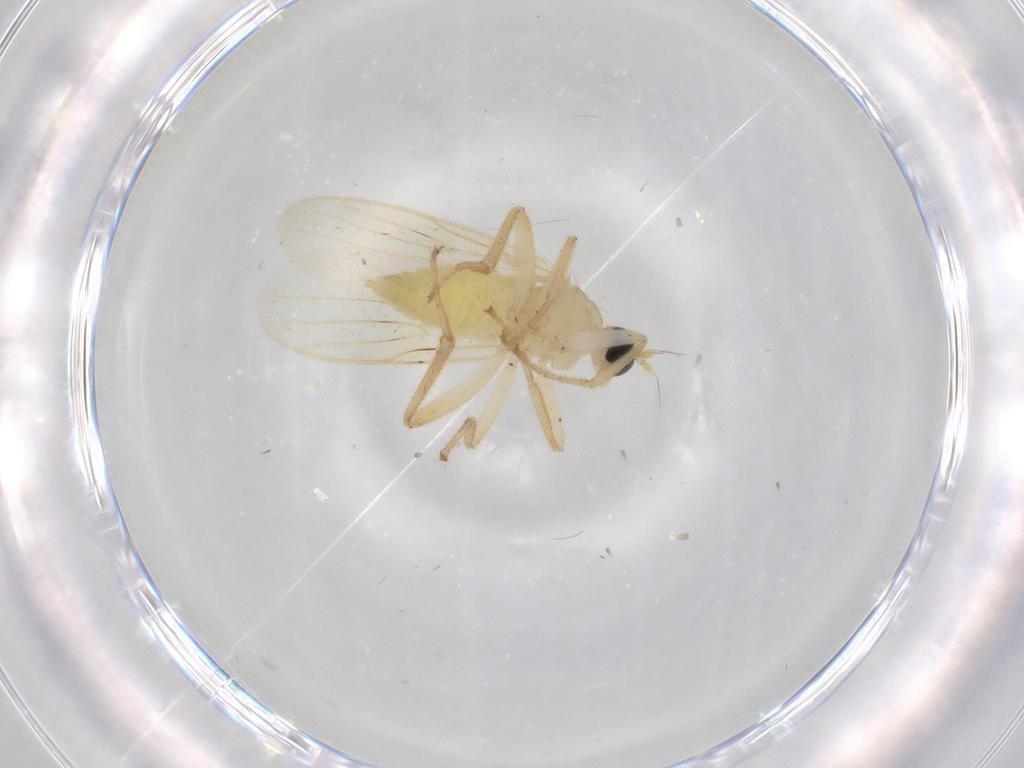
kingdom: Animalia
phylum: Arthropoda
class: Insecta
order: Diptera
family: Hybotidae
